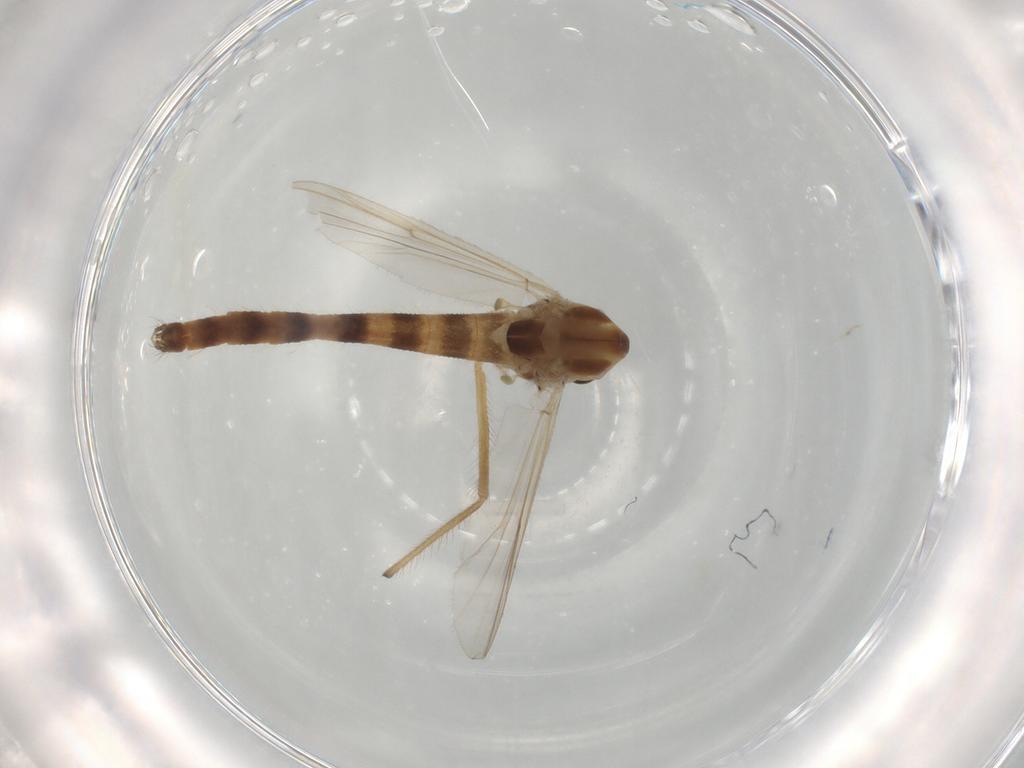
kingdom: Animalia
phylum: Arthropoda
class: Insecta
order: Diptera
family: Chironomidae
